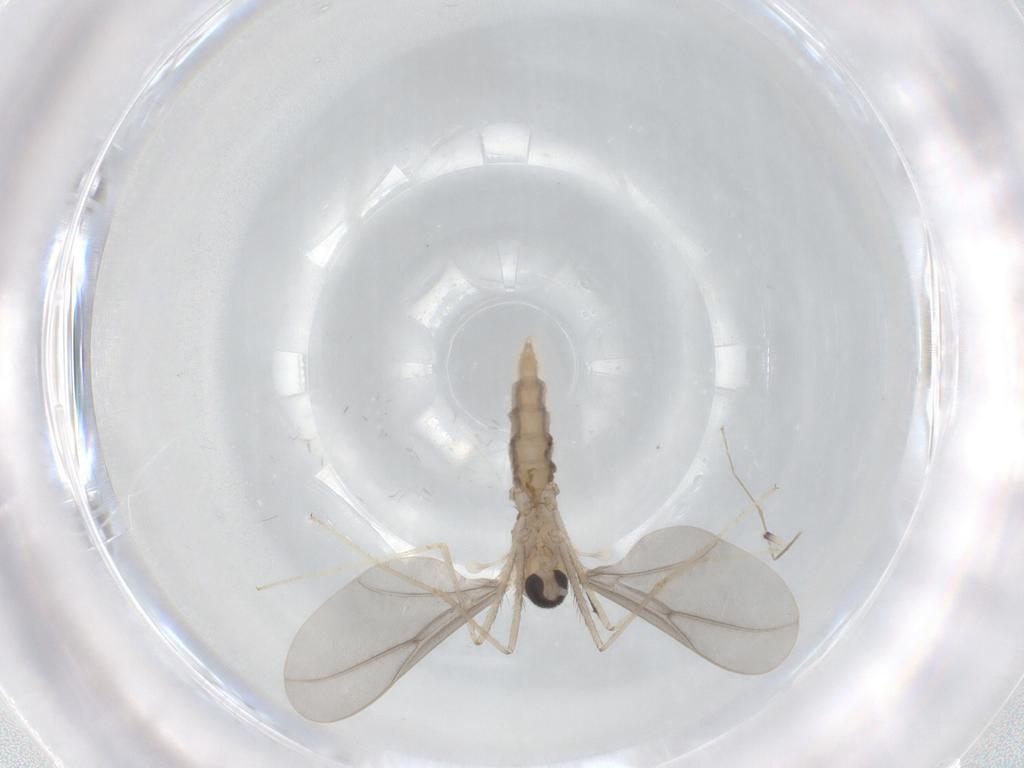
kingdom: Animalia
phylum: Arthropoda
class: Insecta
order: Diptera
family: Cecidomyiidae
